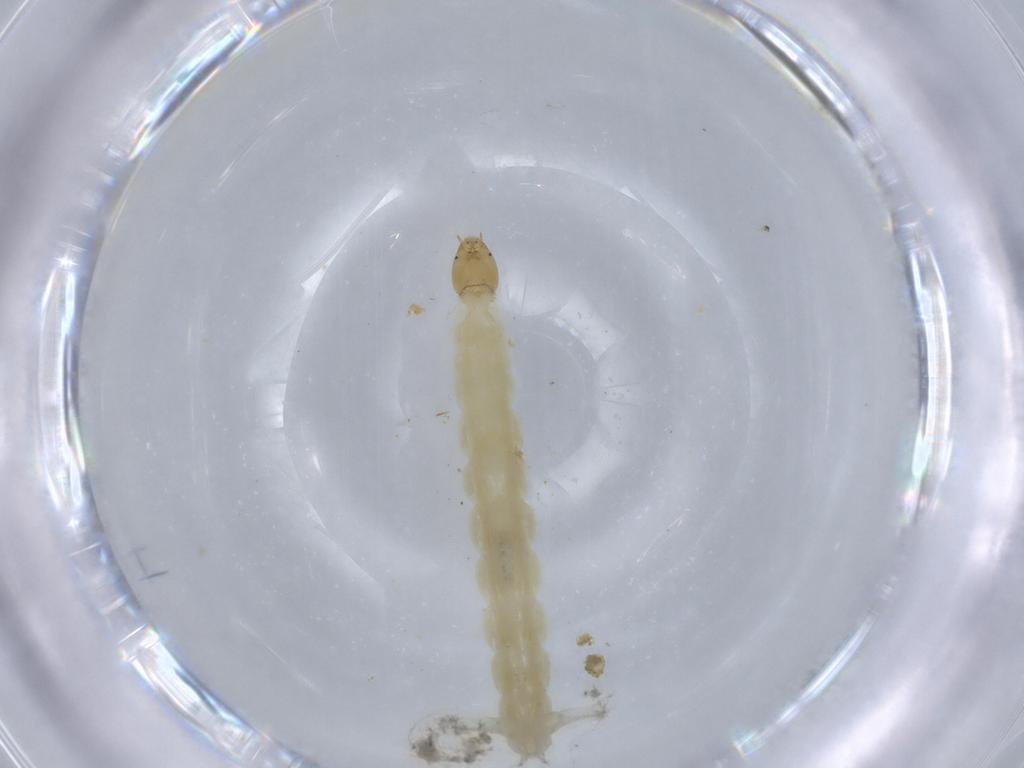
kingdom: Animalia
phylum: Arthropoda
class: Insecta
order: Diptera
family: Chironomidae
